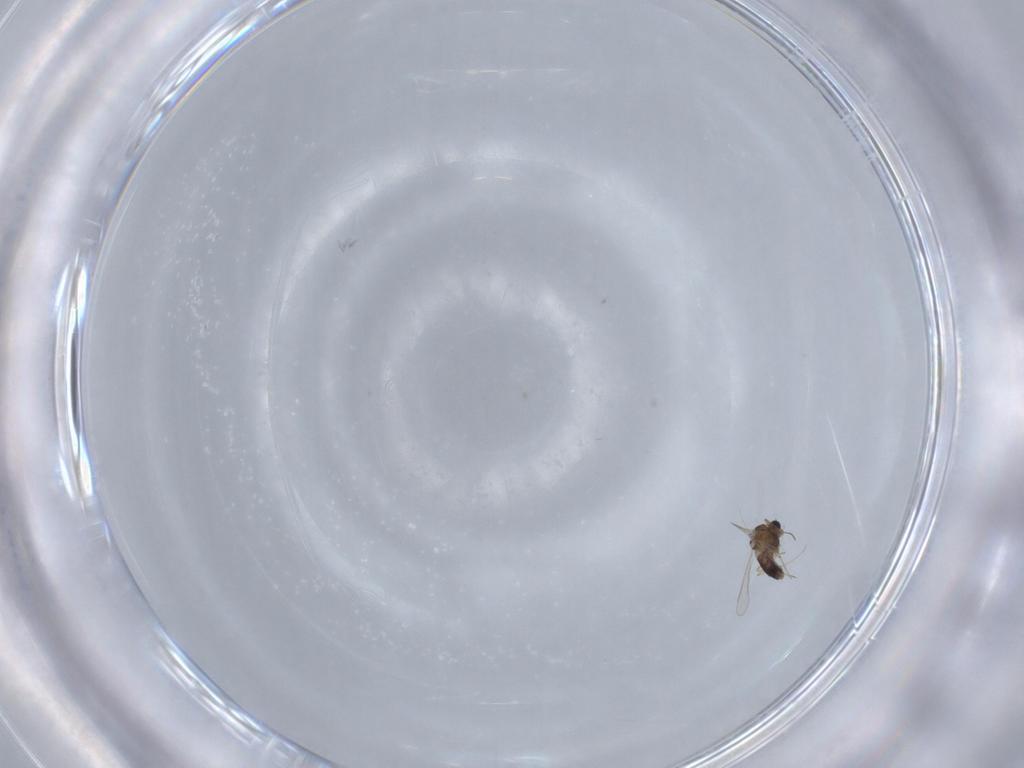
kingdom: Animalia
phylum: Arthropoda
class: Insecta
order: Diptera
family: Chironomidae
